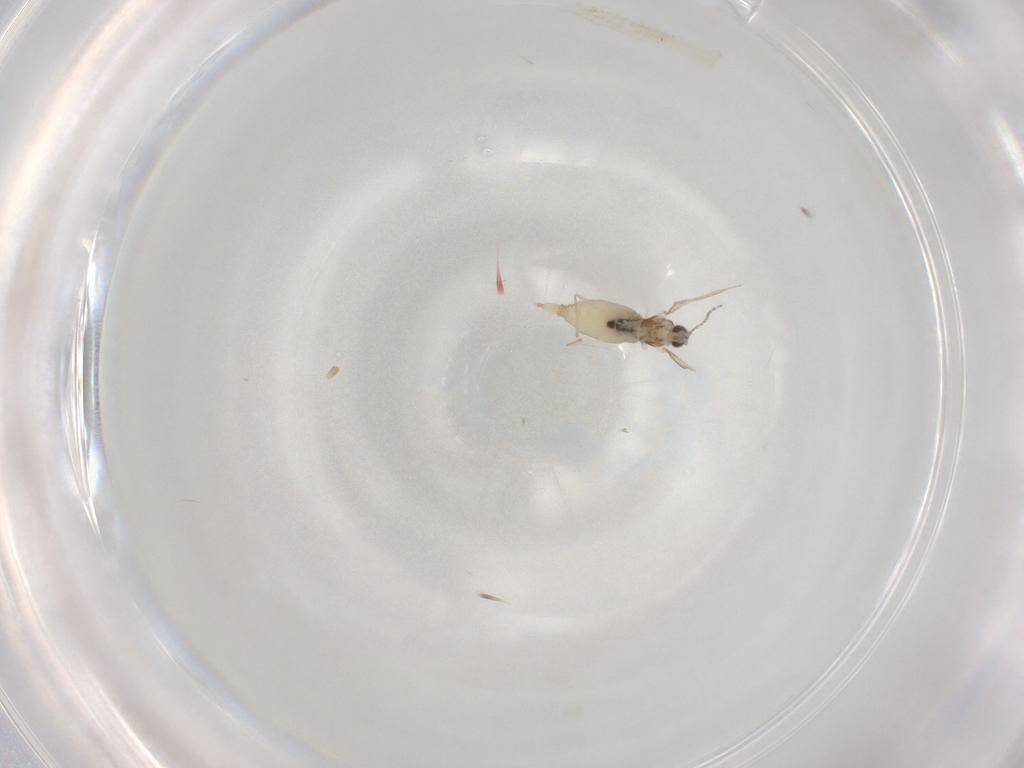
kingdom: Animalia
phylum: Arthropoda
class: Insecta
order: Diptera
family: Cecidomyiidae
